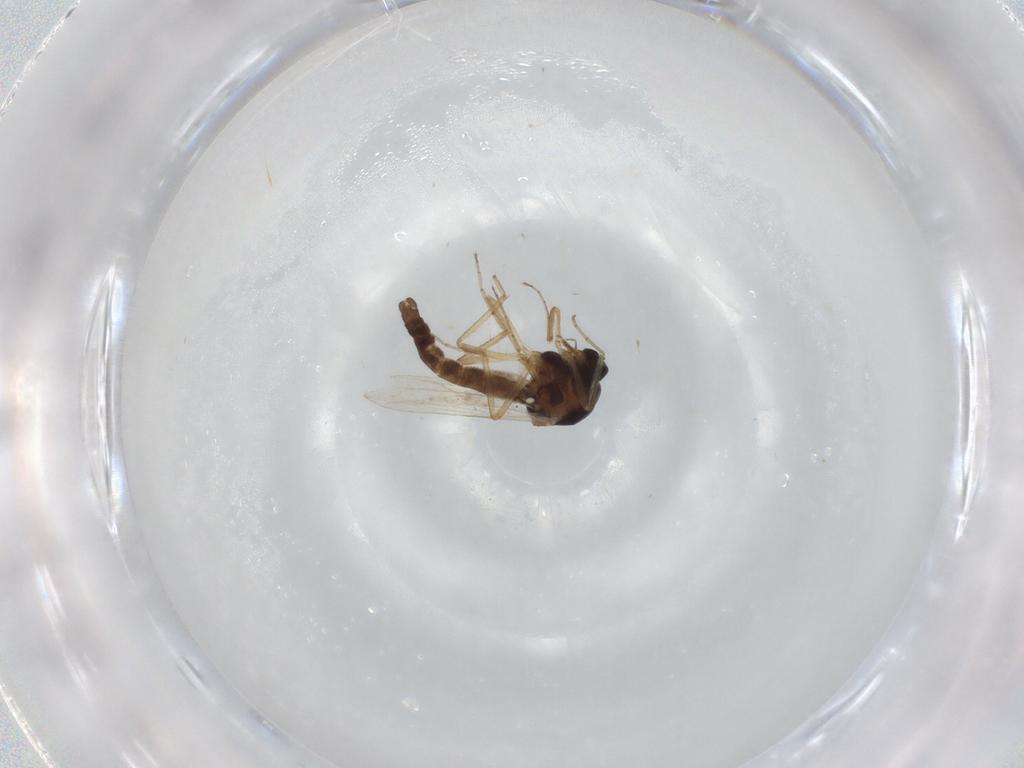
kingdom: Animalia
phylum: Arthropoda
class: Insecta
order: Diptera
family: Ceratopogonidae
